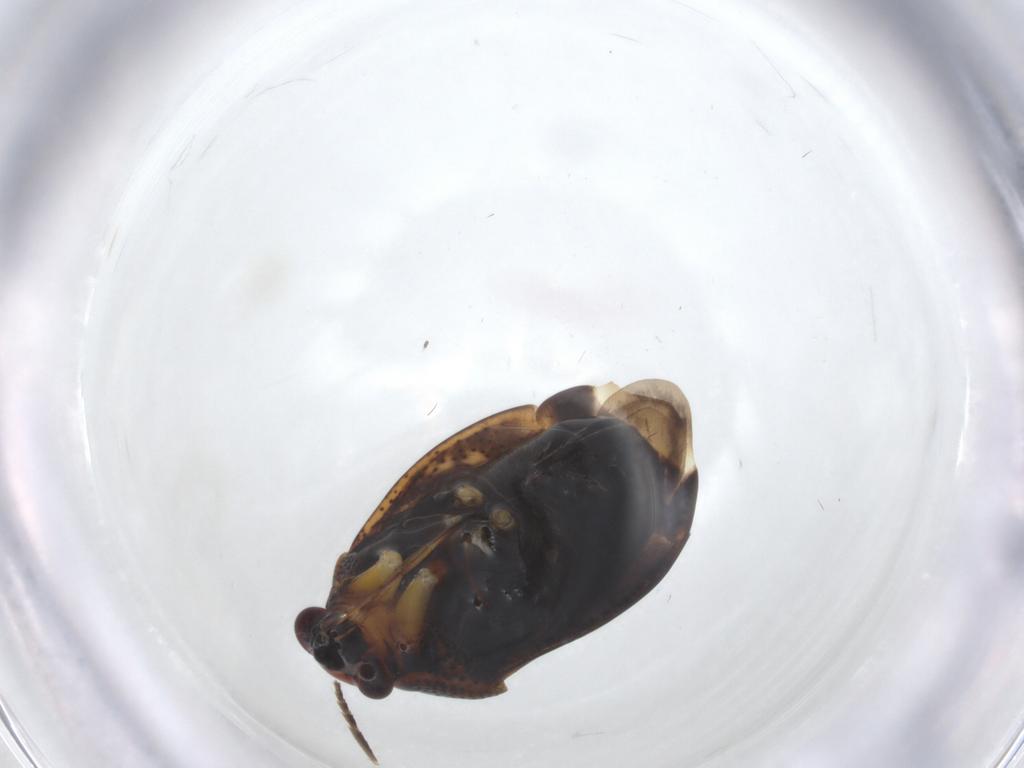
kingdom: Animalia
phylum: Arthropoda
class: Insecta
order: Hemiptera
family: Miridae
